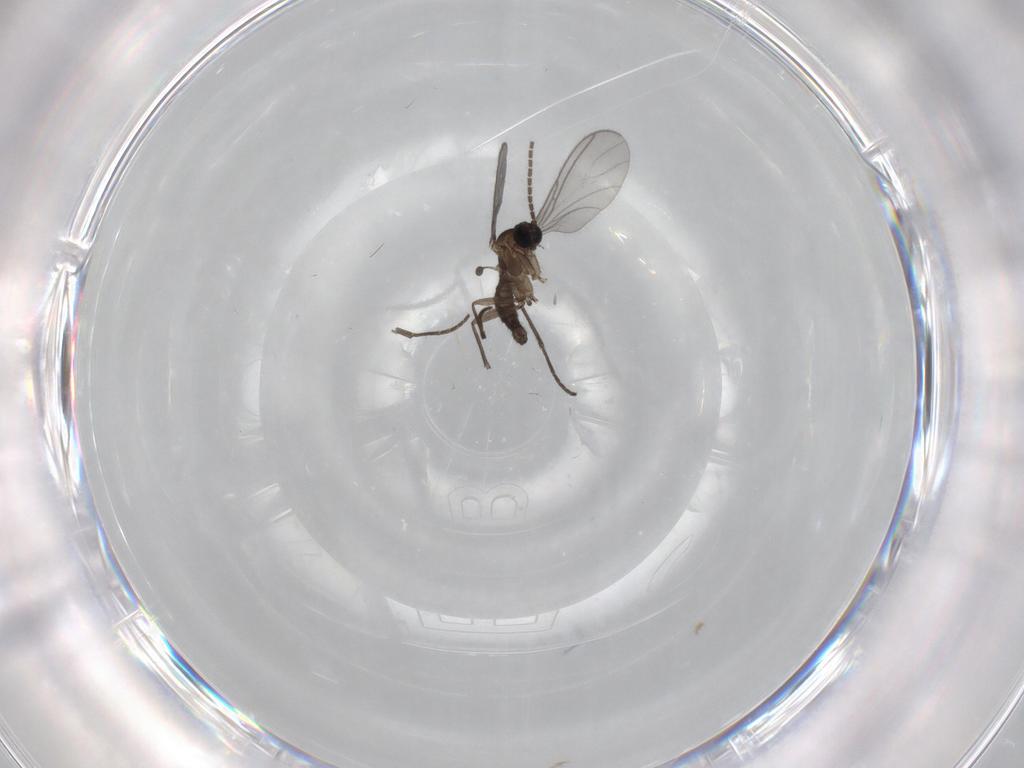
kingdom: Animalia
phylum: Arthropoda
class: Insecta
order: Diptera
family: Phoridae
